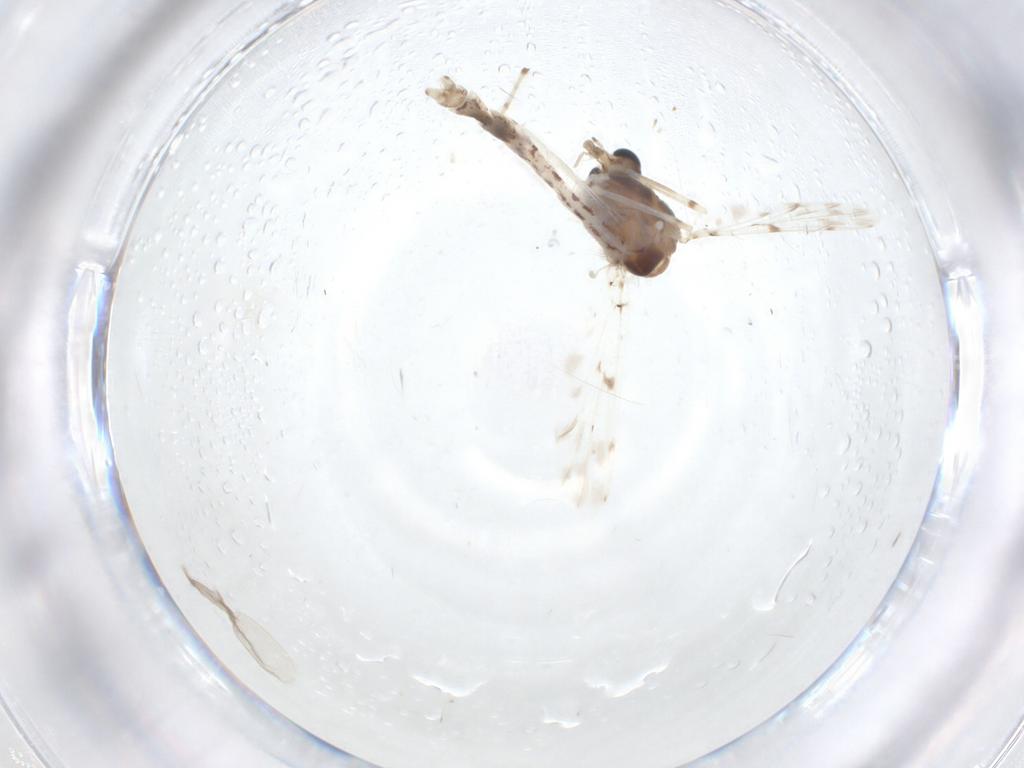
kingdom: Animalia
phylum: Arthropoda
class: Insecta
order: Diptera
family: Chironomidae
